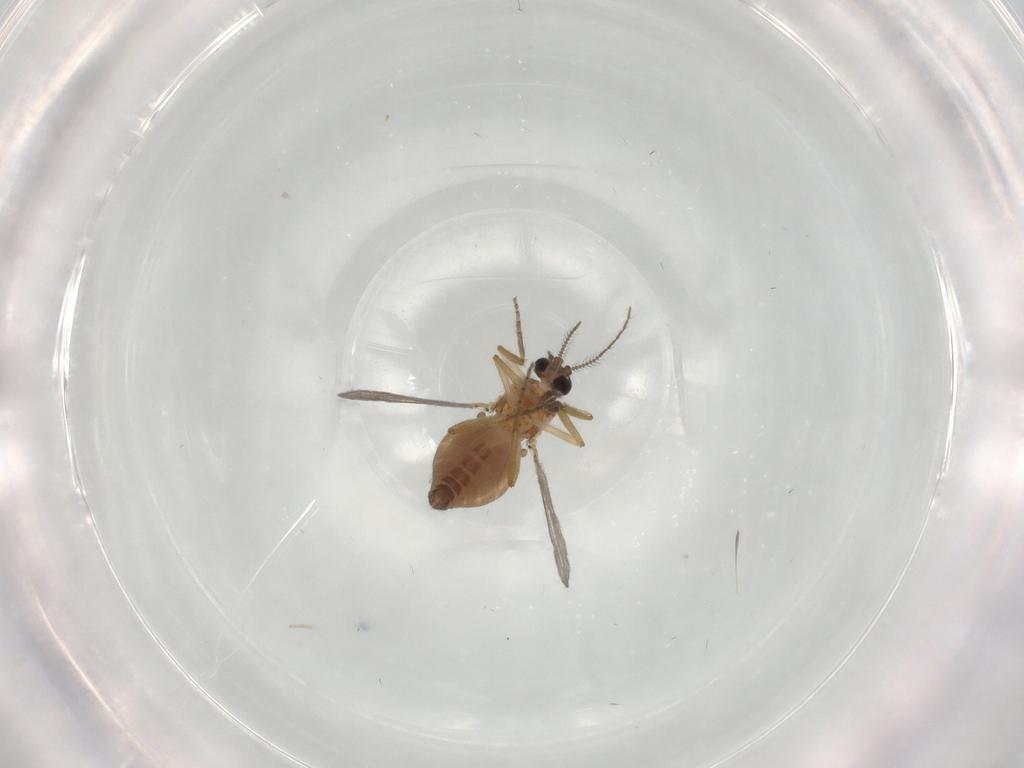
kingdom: Animalia
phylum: Arthropoda
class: Insecta
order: Diptera
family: Ceratopogonidae
